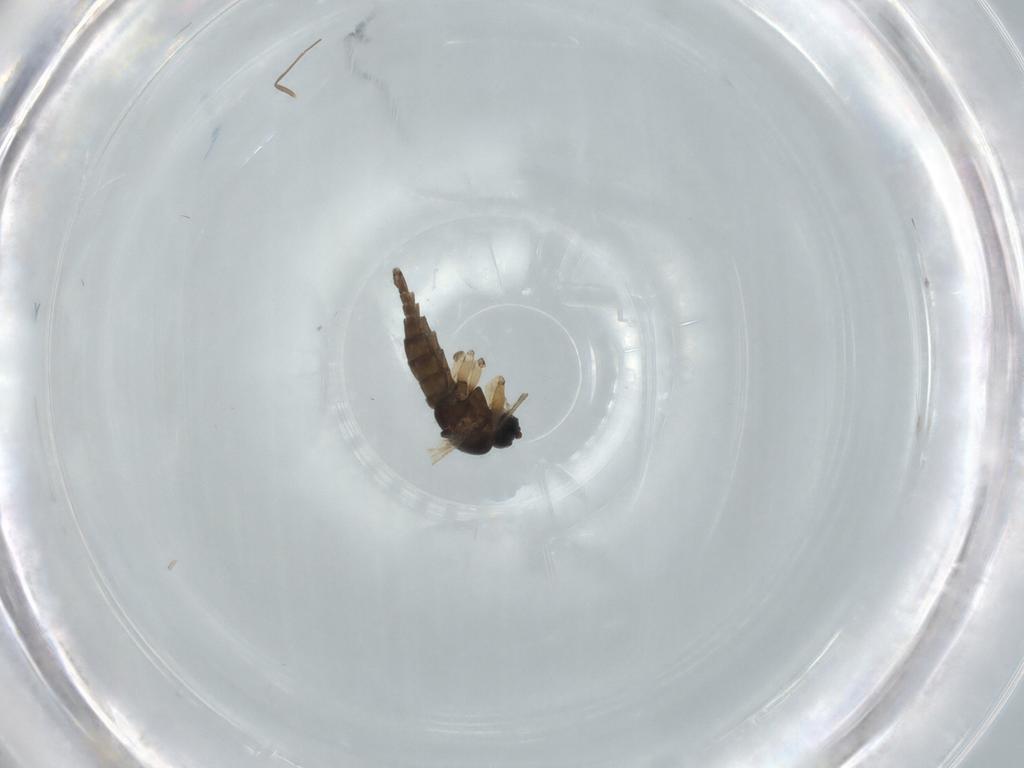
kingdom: Animalia
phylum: Arthropoda
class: Insecta
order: Diptera
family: Sciaridae
